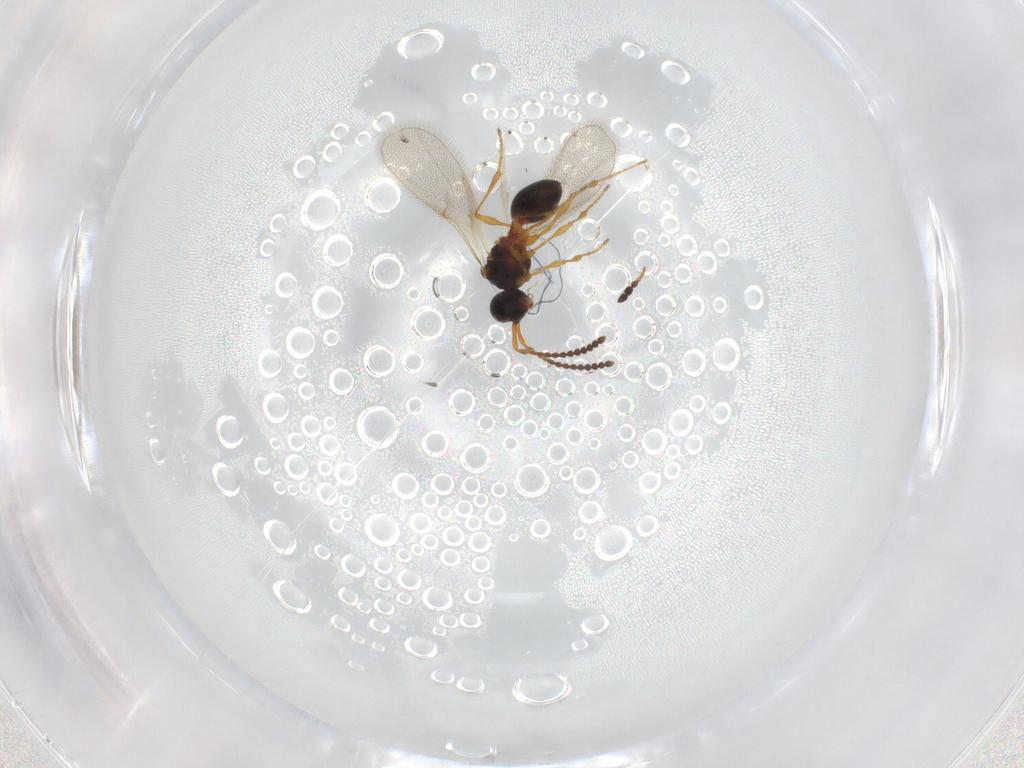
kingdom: Animalia
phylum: Arthropoda
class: Insecta
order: Hymenoptera
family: Diapriidae
